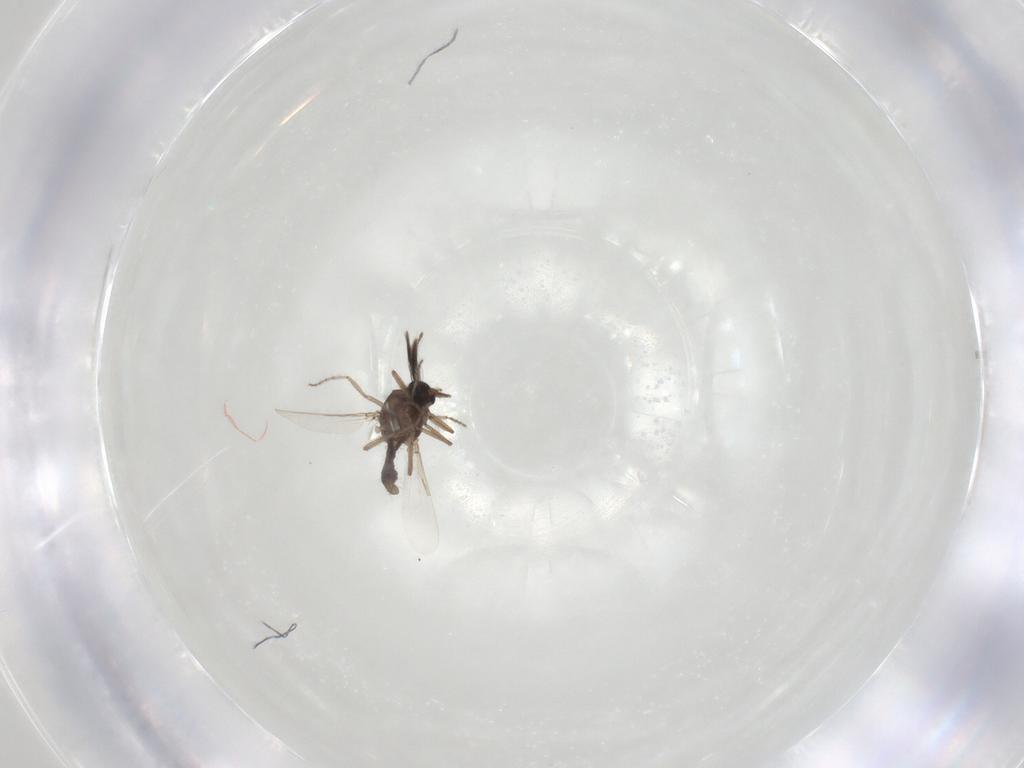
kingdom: Animalia
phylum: Arthropoda
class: Insecta
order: Diptera
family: Ceratopogonidae
